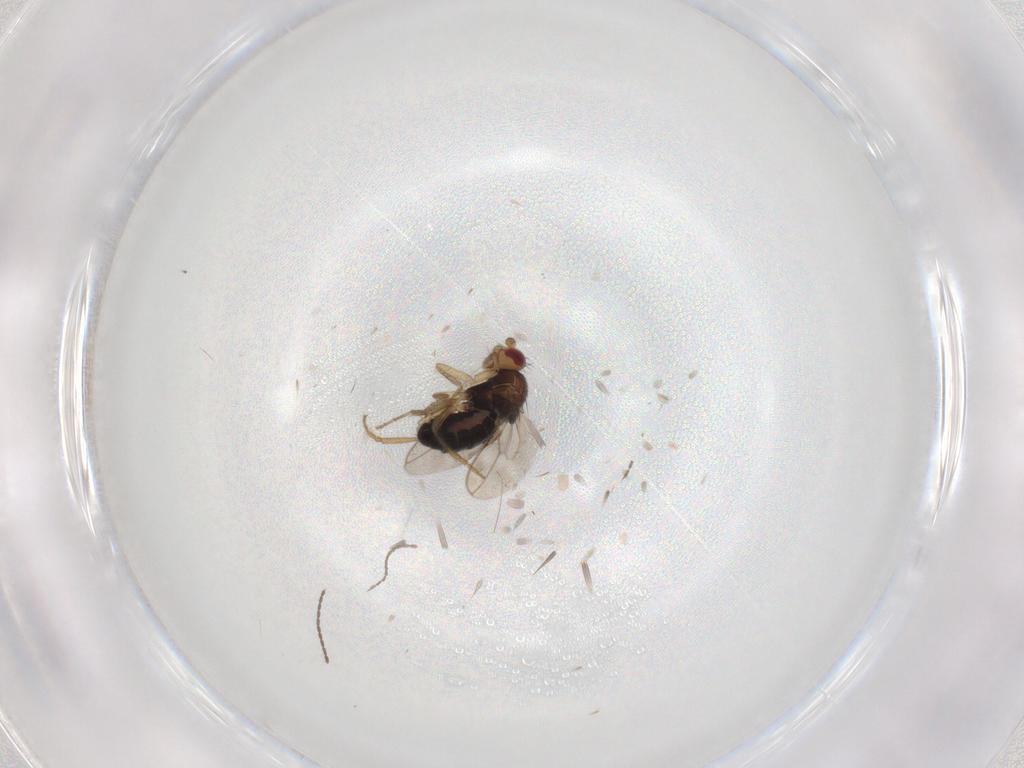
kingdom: Animalia
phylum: Arthropoda
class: Insecta
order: Diptera
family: Sphaeroceridae
